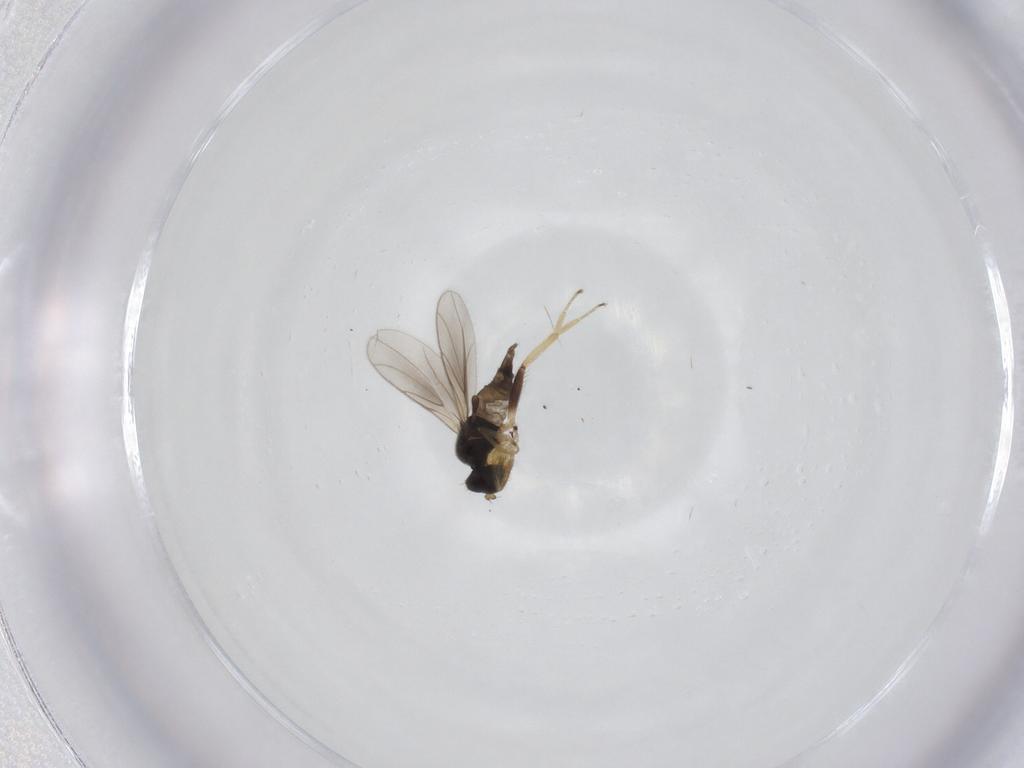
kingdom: Animalia
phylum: Arthropoda
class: Insecta
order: Diptera
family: Hybotidae
